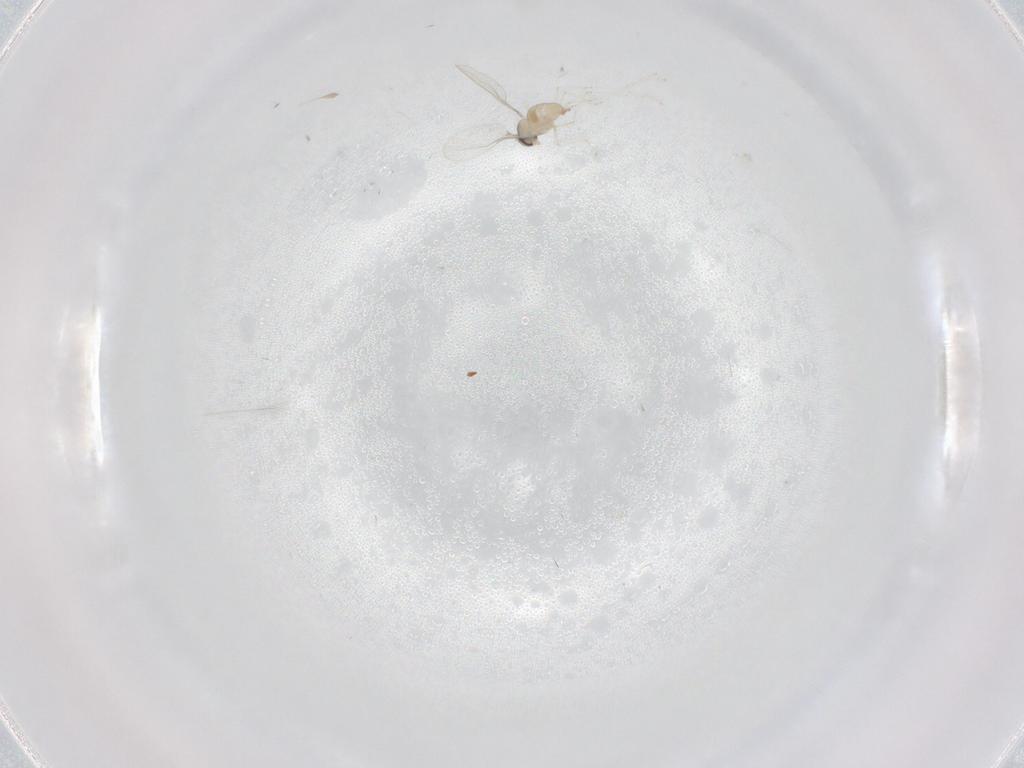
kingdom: Animalia
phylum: Arthropoda
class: Insecta
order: Diptera
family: Cecidomyiidae
